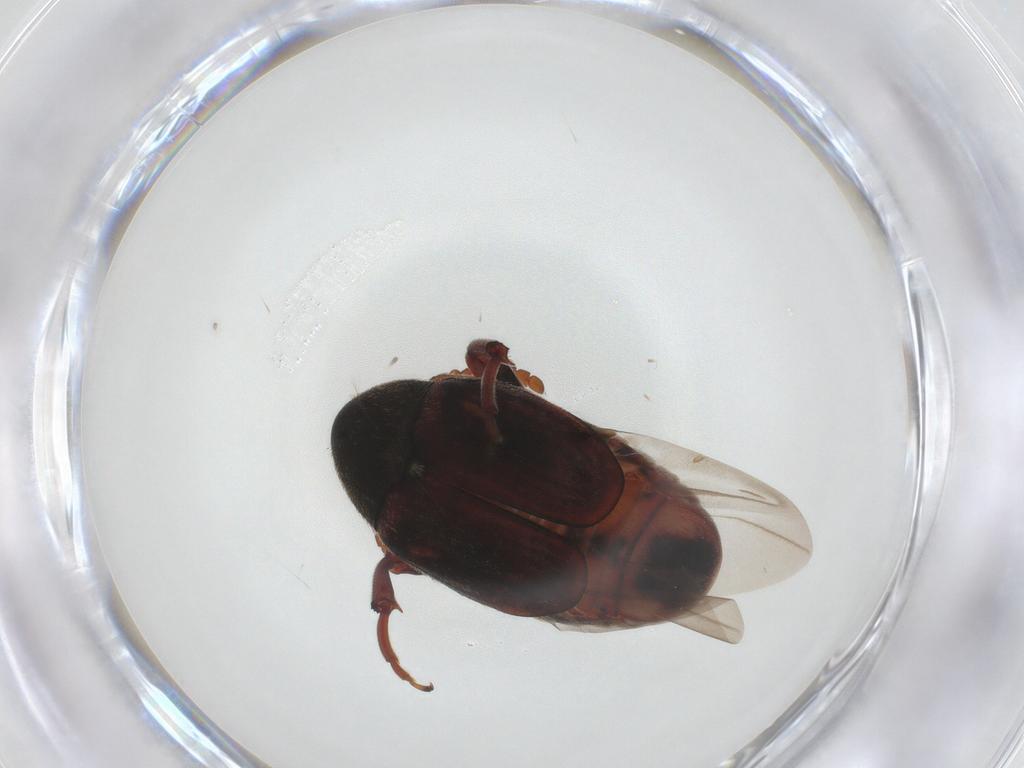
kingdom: Animalia
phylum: Arthropoda
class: Insecta
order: Coleoptera
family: Chrysomelidae
